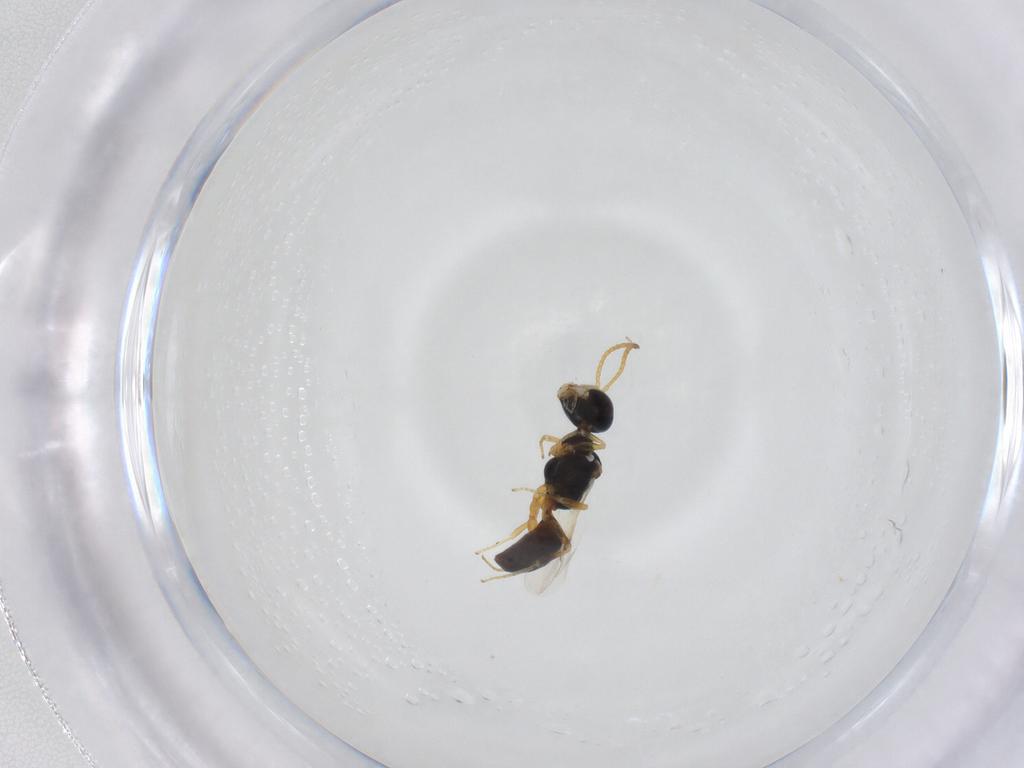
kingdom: Animalia
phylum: Arthropoda
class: Insecta
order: Hymenoptera
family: Pemphredonidae
